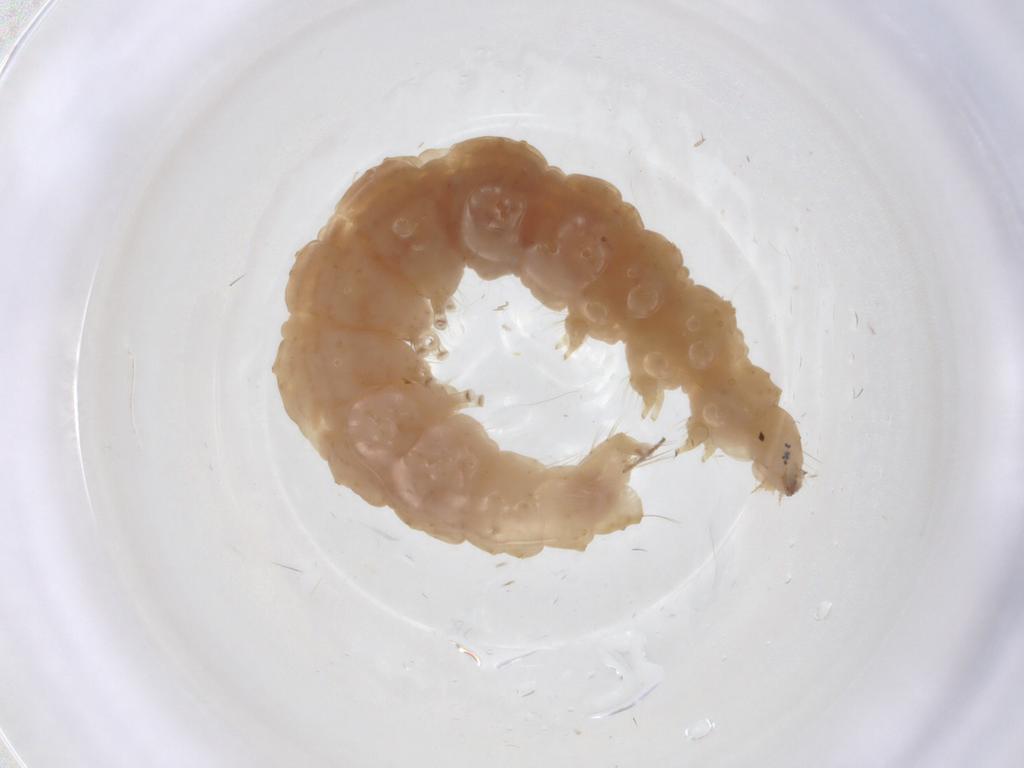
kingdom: Animalia
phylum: Arthropoda
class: Insecta
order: Lepidoptera
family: Immidae
